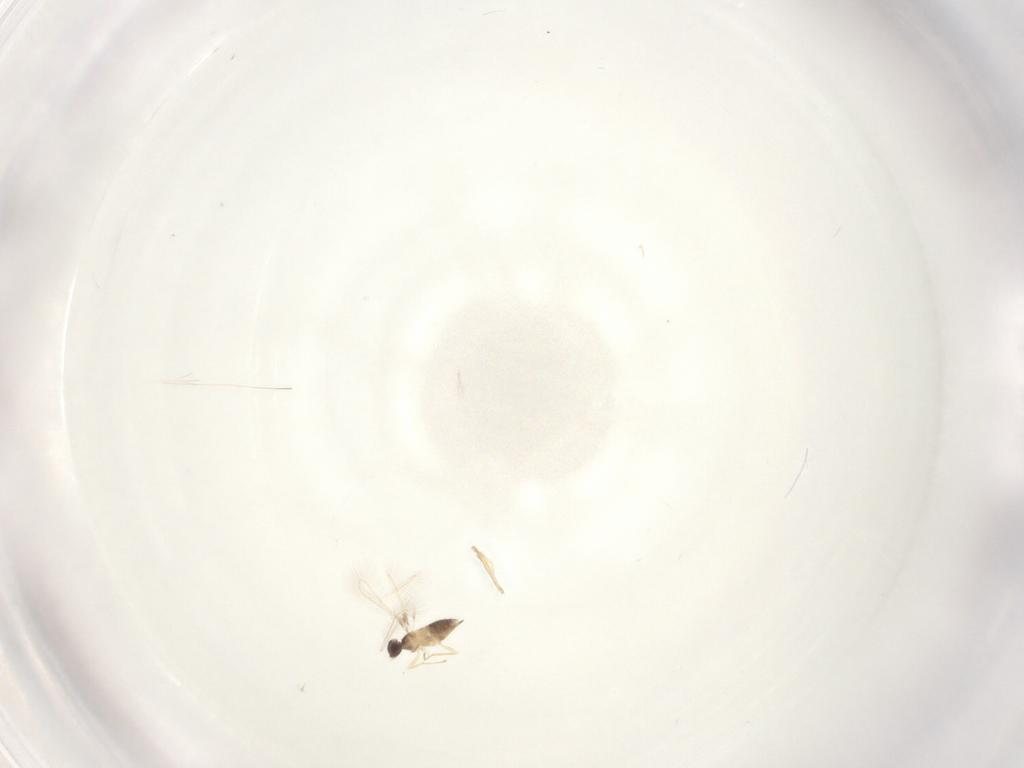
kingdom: Animalia
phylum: Arthropoda
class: Insecta
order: Hymenoptera
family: Mymaridae
